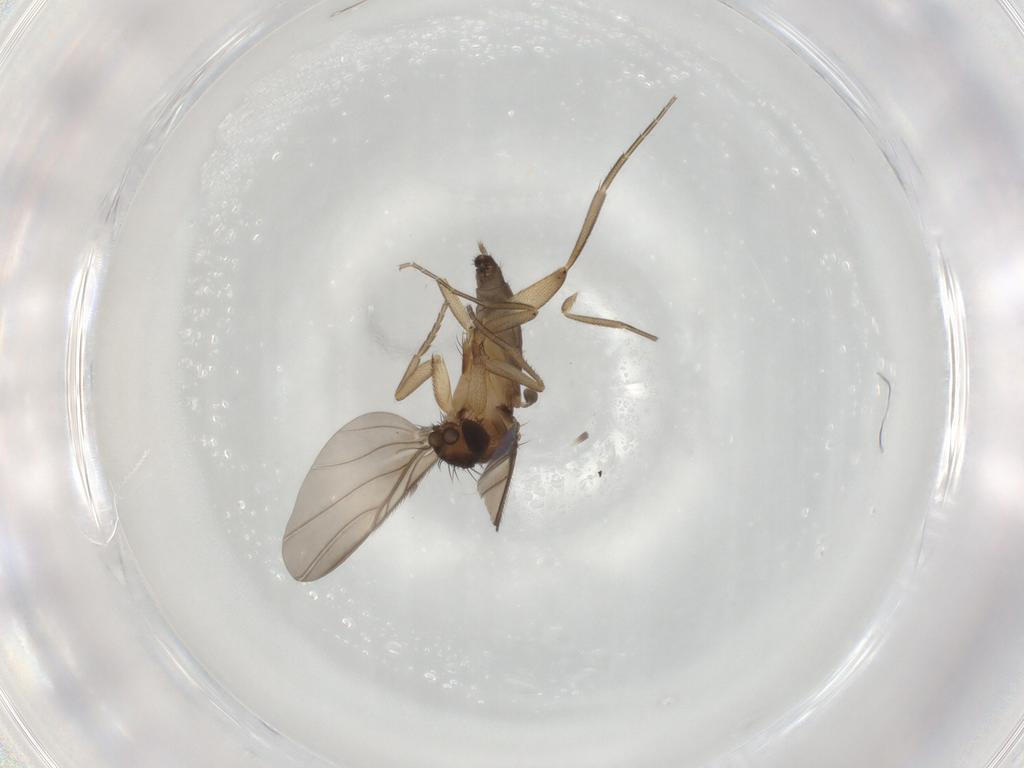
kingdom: Animalia
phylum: Arthropoda
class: Insecta
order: Diptera
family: Phoridae
